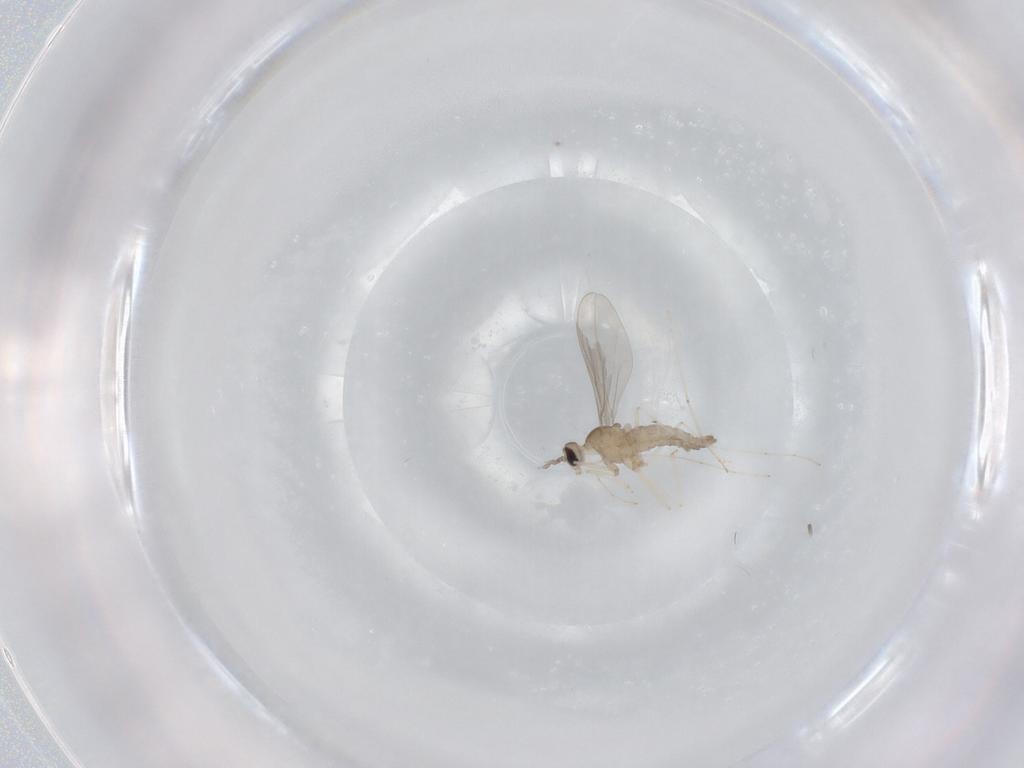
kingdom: Animalia
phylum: Arthropoda
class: Insecta
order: Diptera
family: Cecidomyiidae
